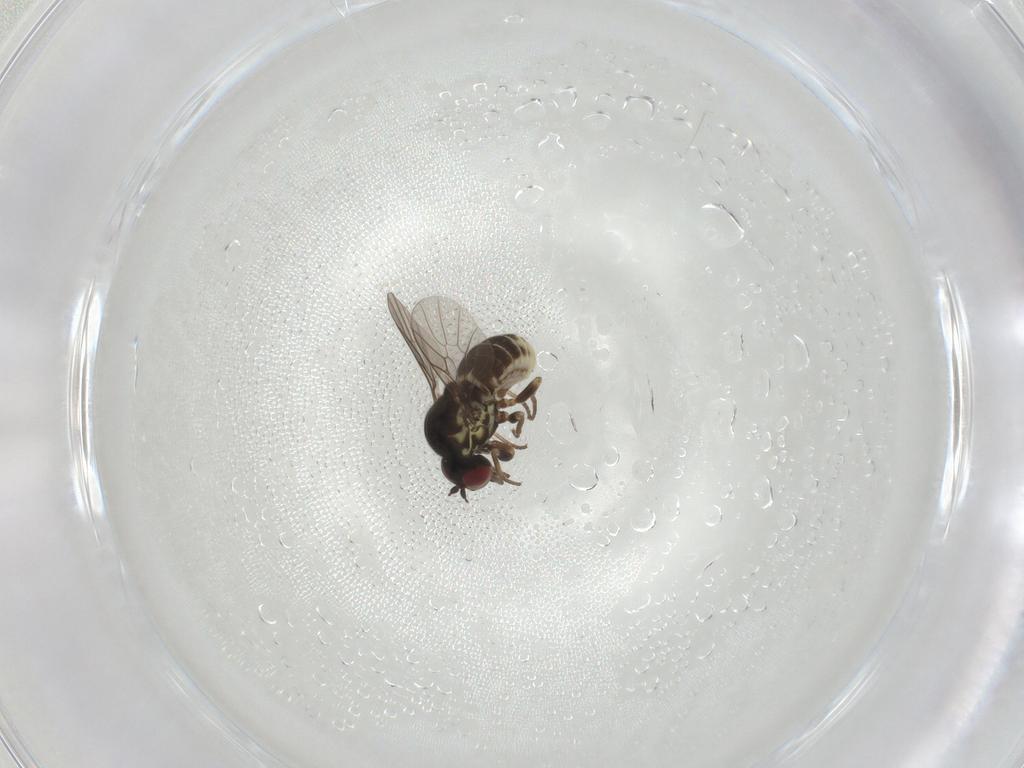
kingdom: Animalia
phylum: Arthropoda
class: Insecta
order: Diptera
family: Bombyliidae
